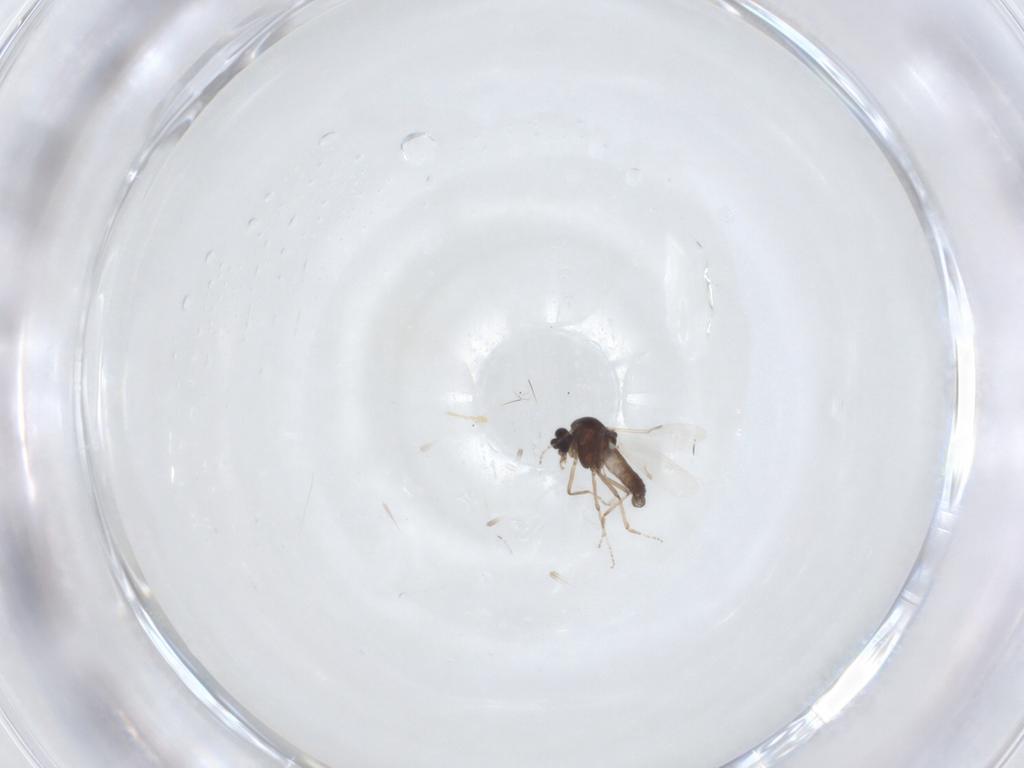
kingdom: Animalia
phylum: Arthropoda
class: Insecta
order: Diptera
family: Ceratopogonidae
